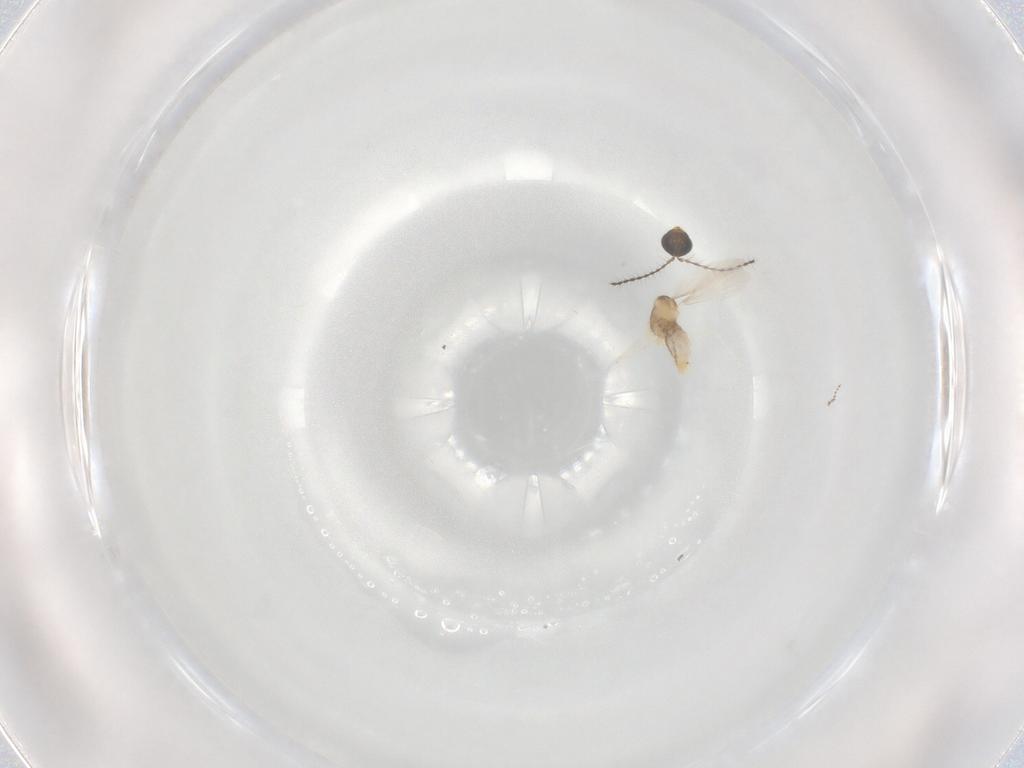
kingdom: Animalia
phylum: Arthropoda
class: Insecta
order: Diptera
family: Cecidomyiidae
